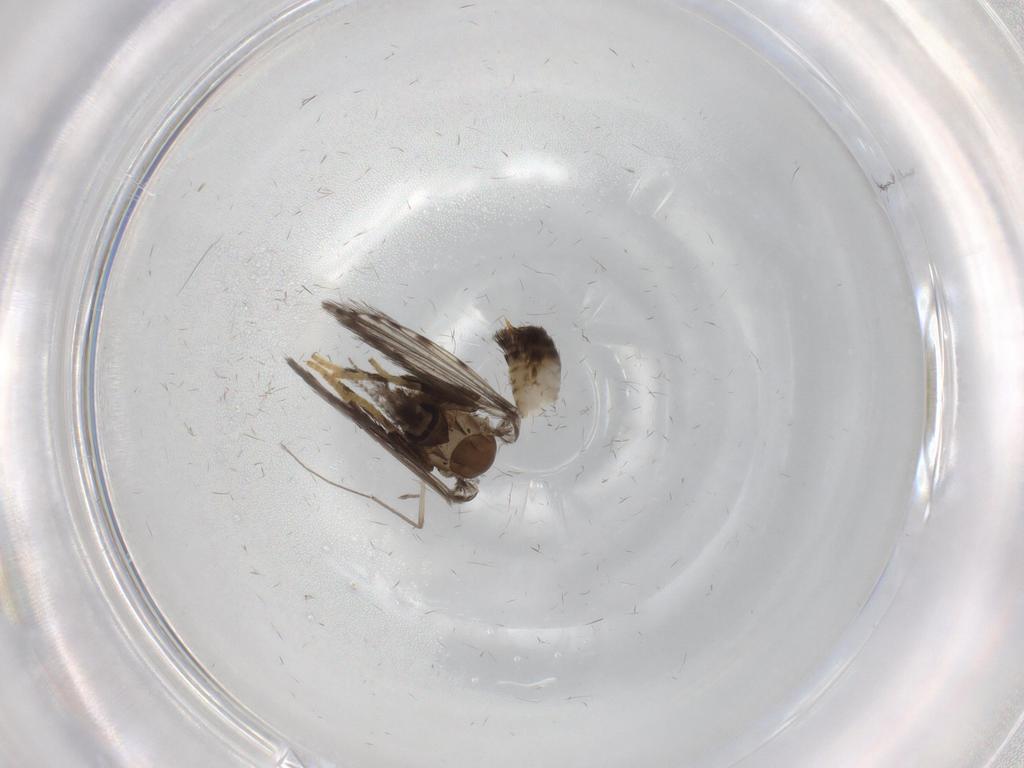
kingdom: Animalia
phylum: Arthropoda
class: Insecta
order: Diptera
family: Psychodidae
